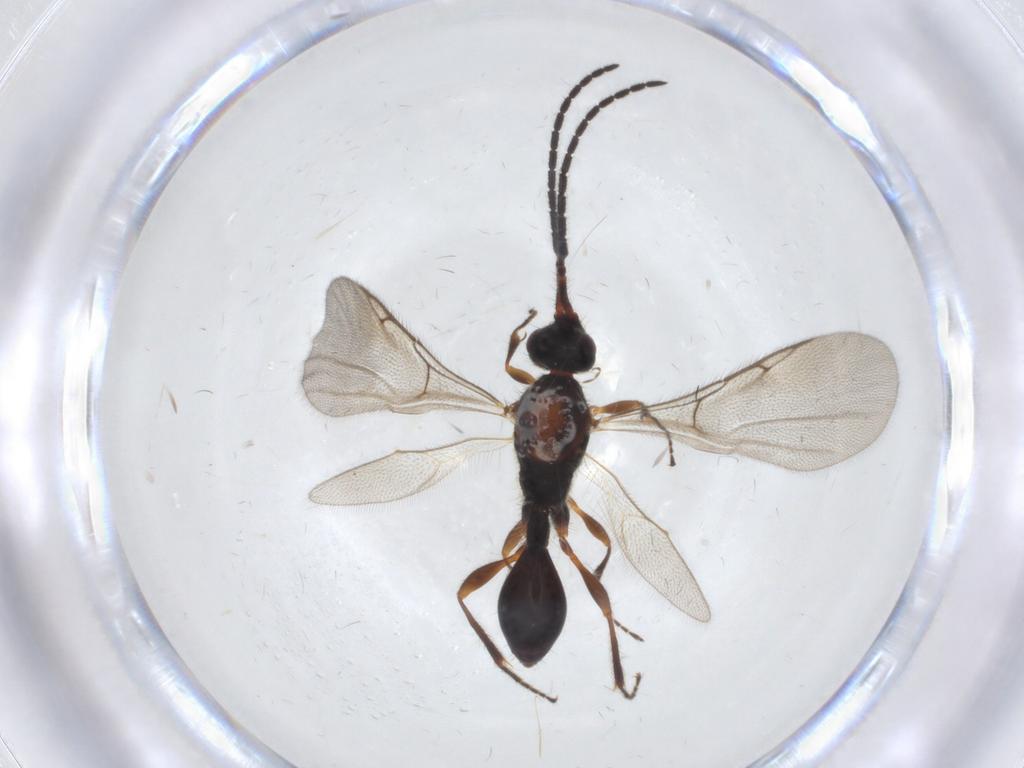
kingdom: Animalia
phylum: Arthropoda
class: Insecta
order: Hymenoptera
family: Diapriidae
